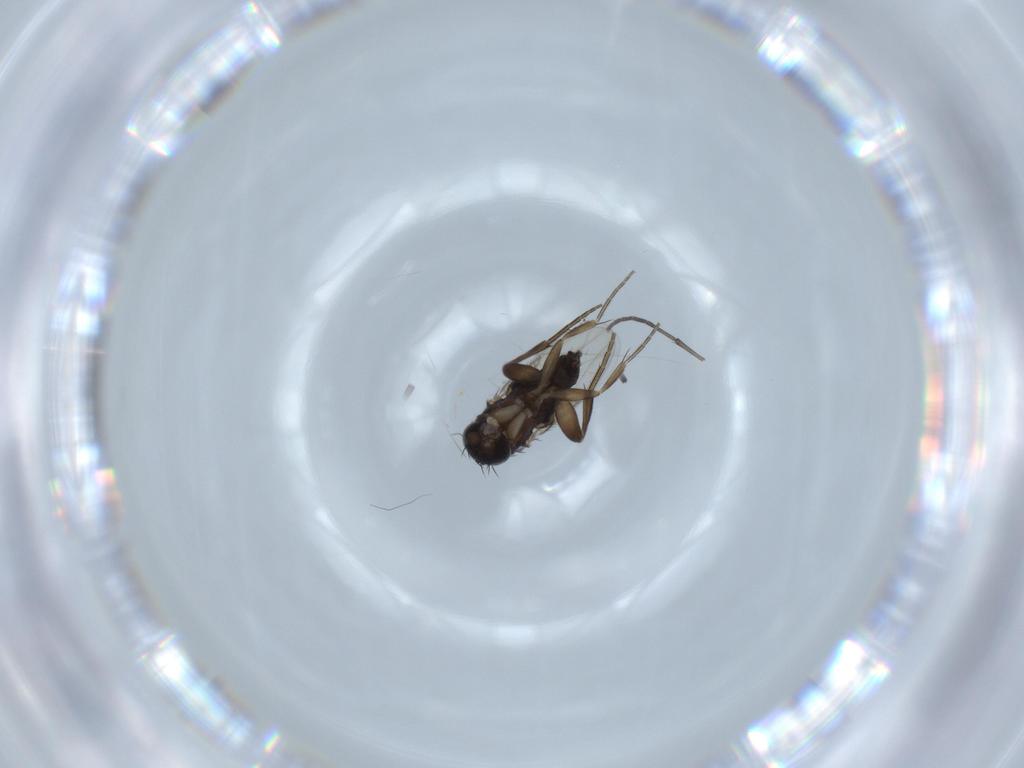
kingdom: Animalia
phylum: Arthropoda
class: Insecta
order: Diptera
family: Phoridae
